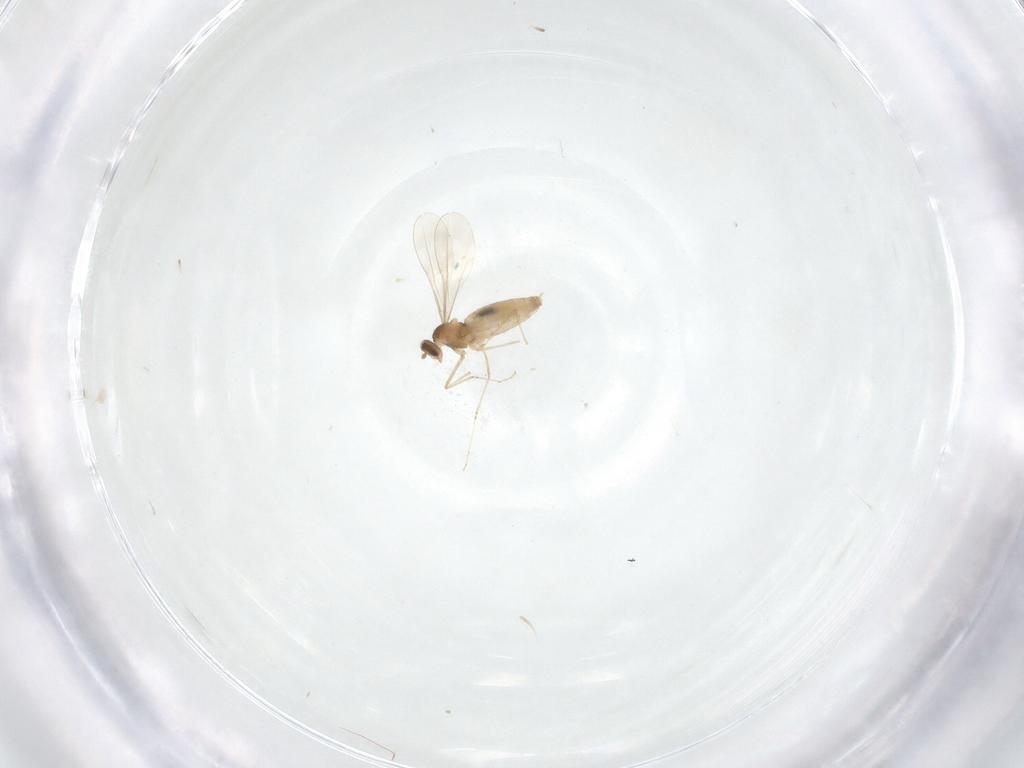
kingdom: Animalia
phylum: Arthropoda
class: Insecta
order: Diptera
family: Cecidomyiidae
